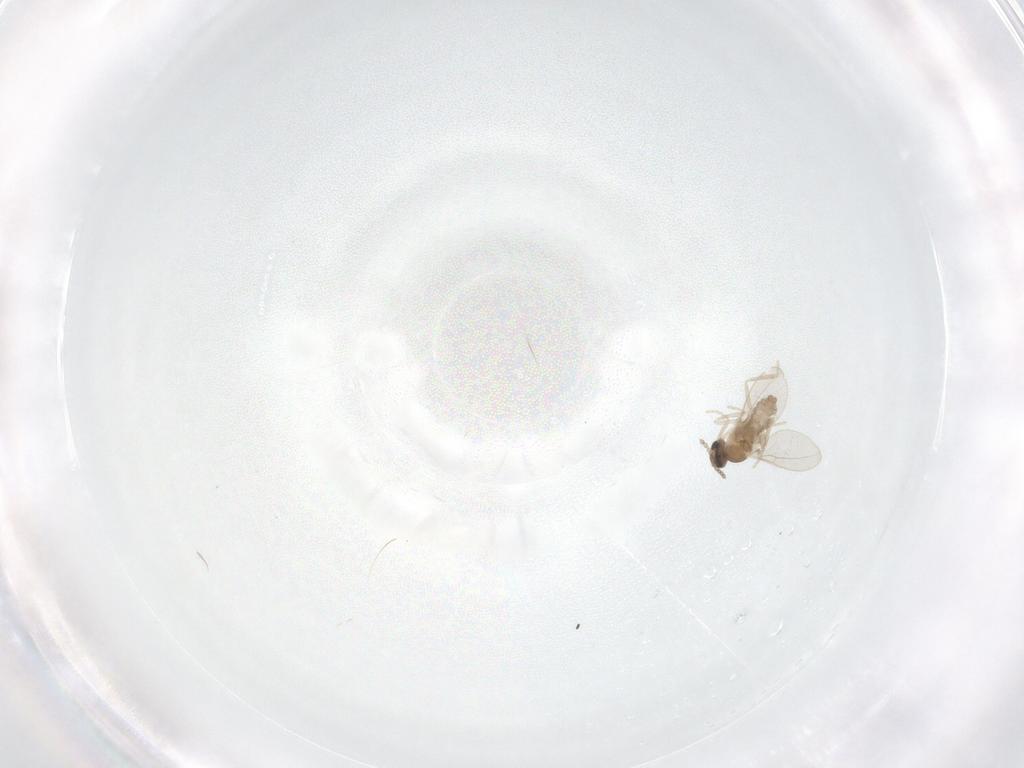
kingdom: Animalia
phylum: Arthropoda
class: Insecta
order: Diptera
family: Cecidomyiidae
